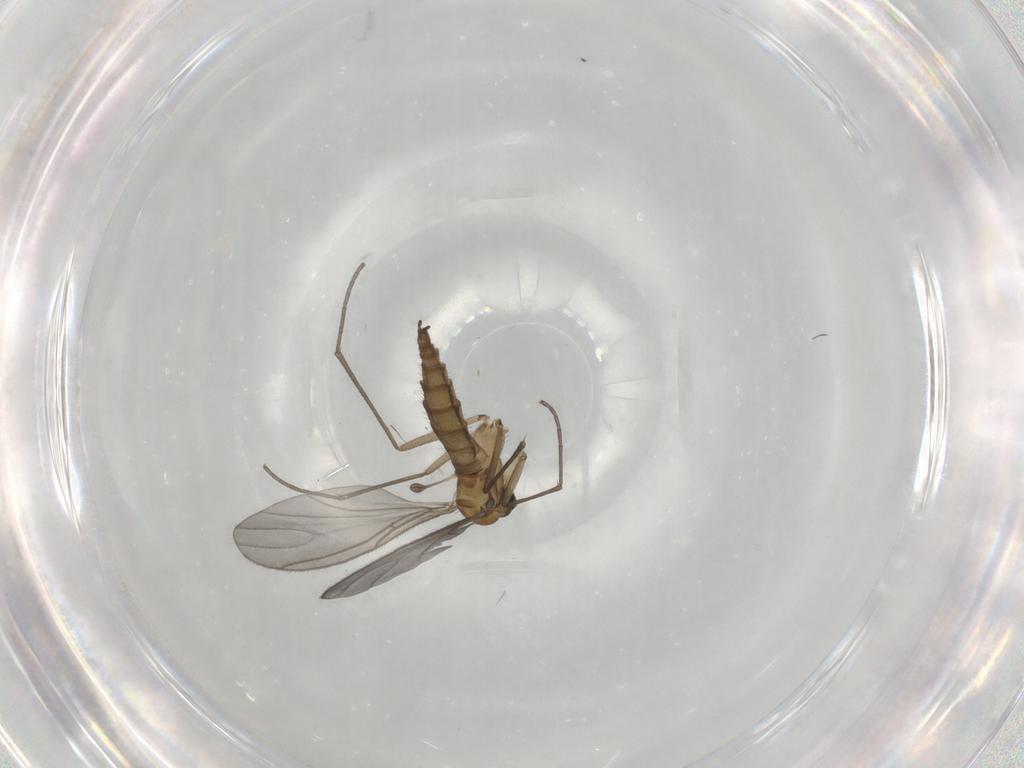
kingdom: Animalia
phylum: Arthropoda
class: Insecta
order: Diptera
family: Sciaridae
